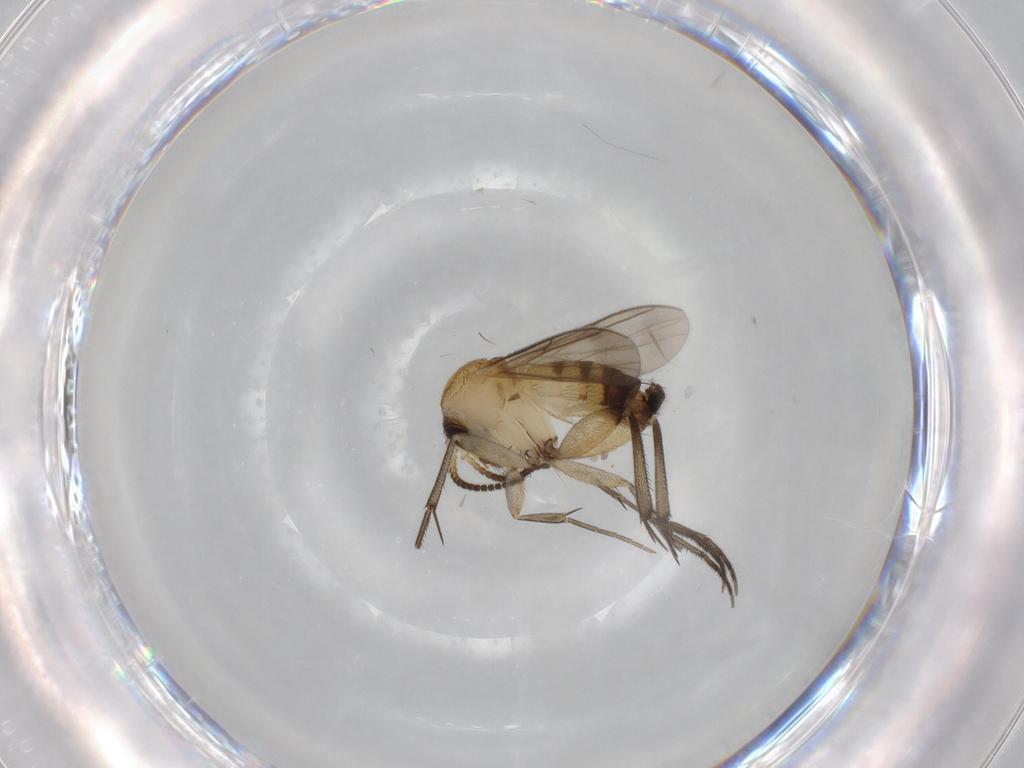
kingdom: Animalia
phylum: Arthropoda
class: Insecta
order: Diptera
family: Mycetophilidae
